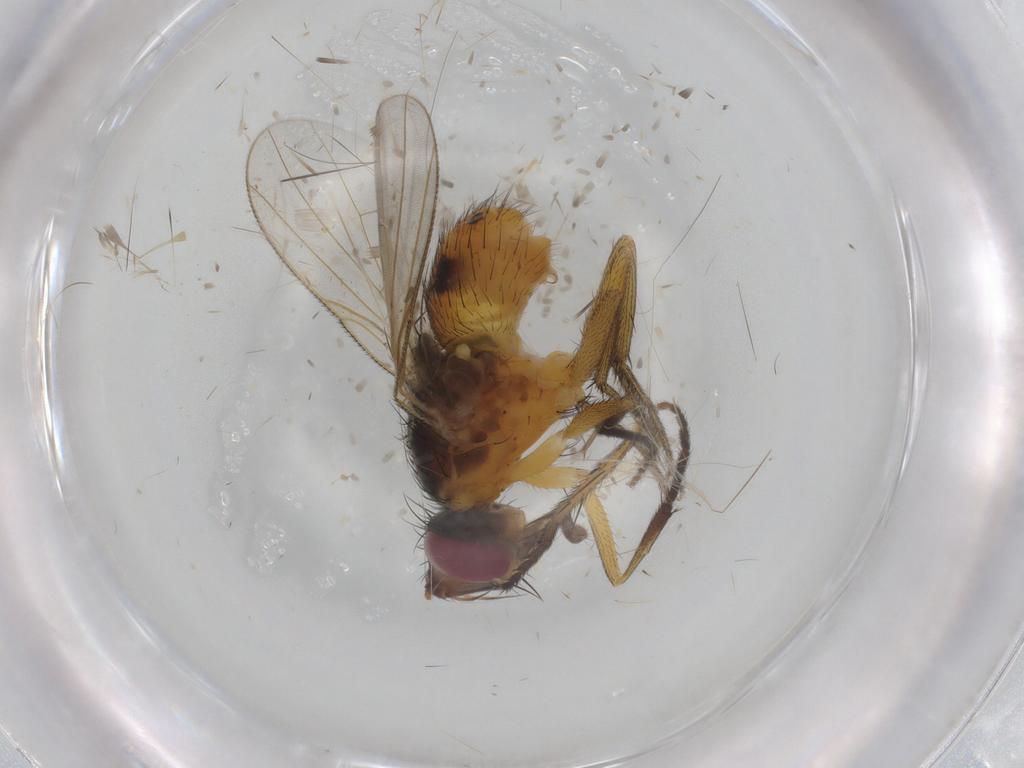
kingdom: Animalia
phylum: Arthropoda
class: Insecta
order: Diptera
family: Muscidae
